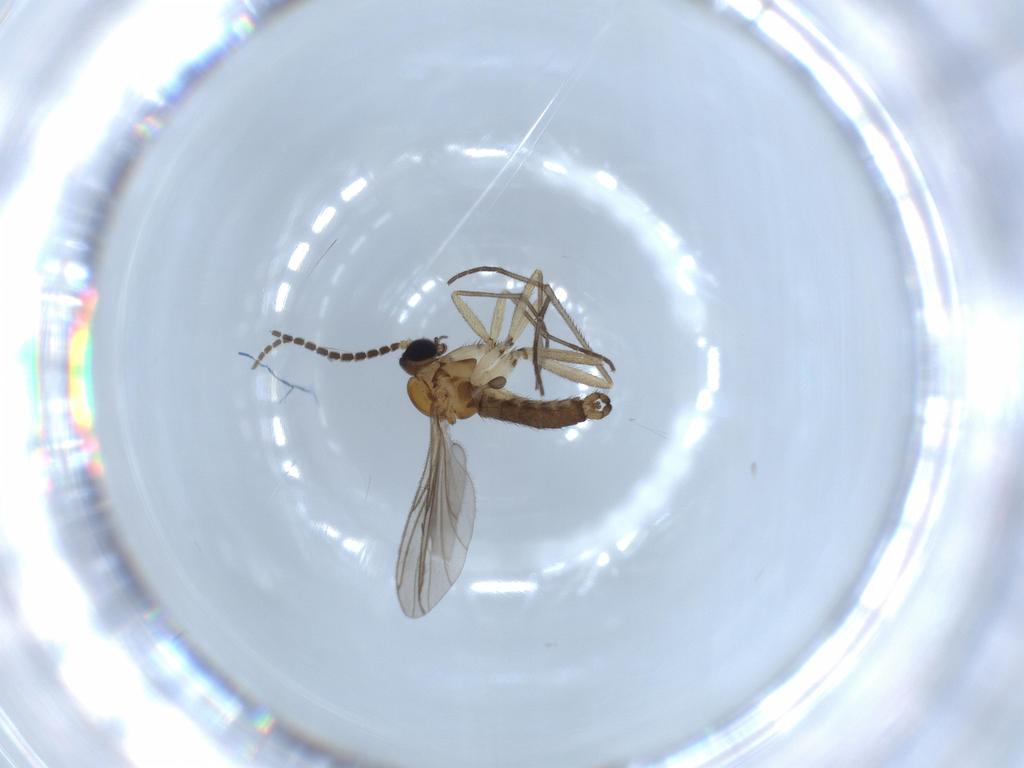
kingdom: Animalia
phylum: Arthropoda
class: Insecta
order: Diptera
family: Sciaridae
